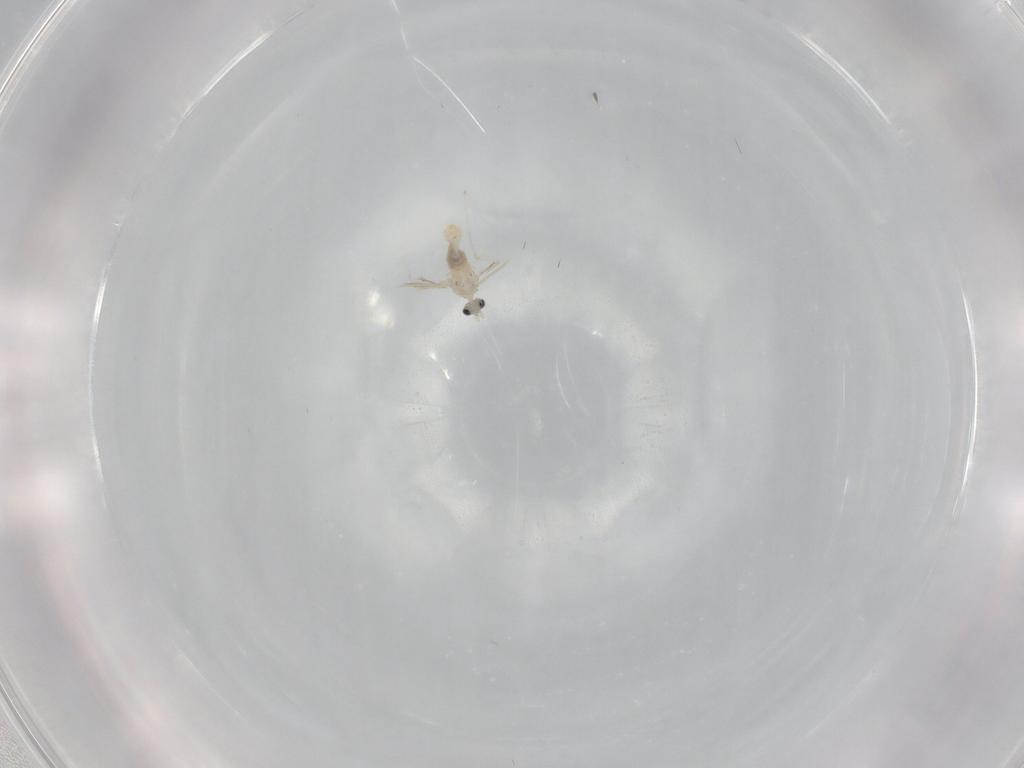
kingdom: Animalia
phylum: Arthropoda
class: Insecta
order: Diptera
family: Cecidomyiidae
